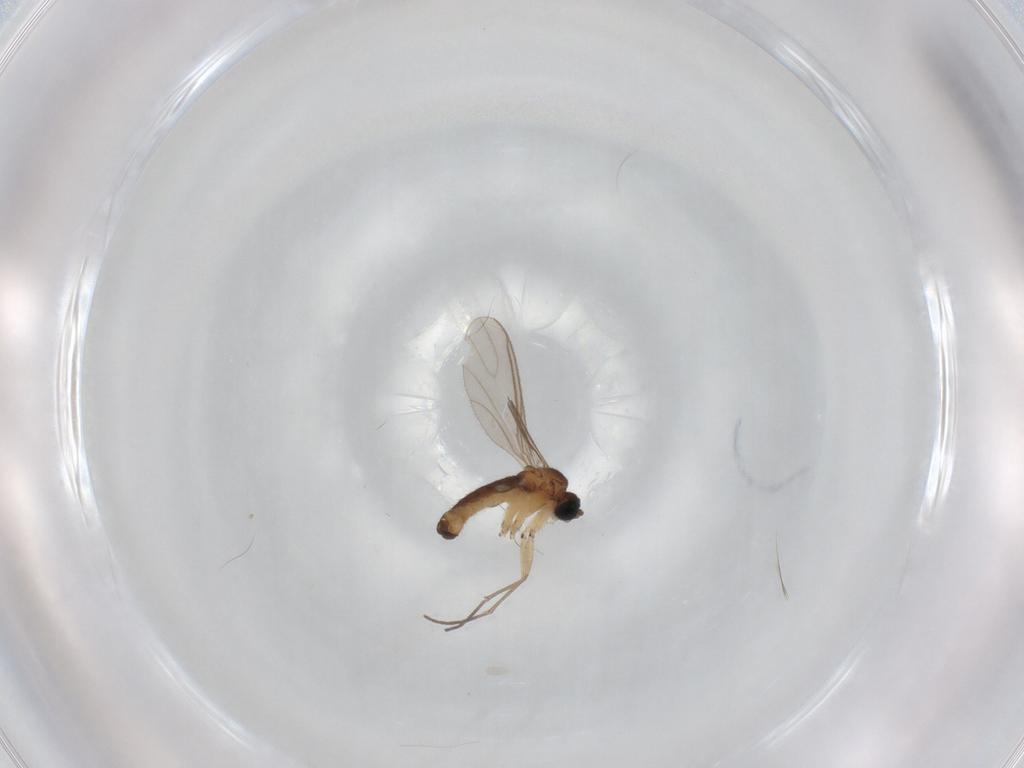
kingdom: Animalia
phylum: Arthropoda
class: Insecta
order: Diptera
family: Sciaridae
